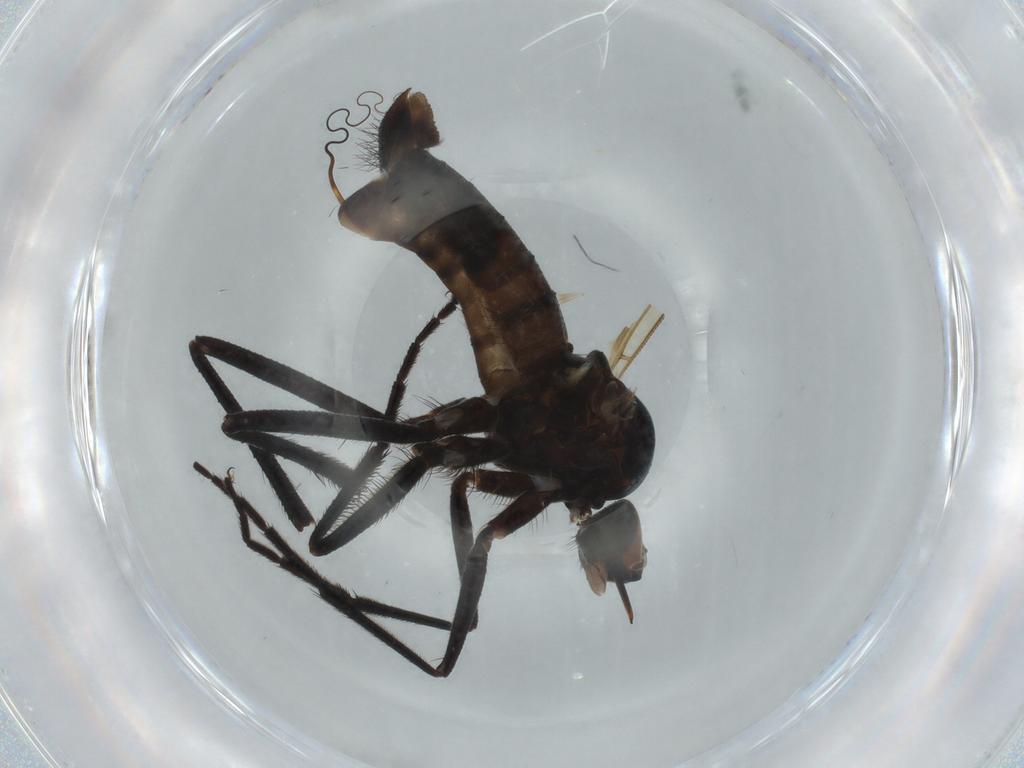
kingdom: Animalia
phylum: Arthropoda
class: Insecta
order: Diptera
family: Empididae
